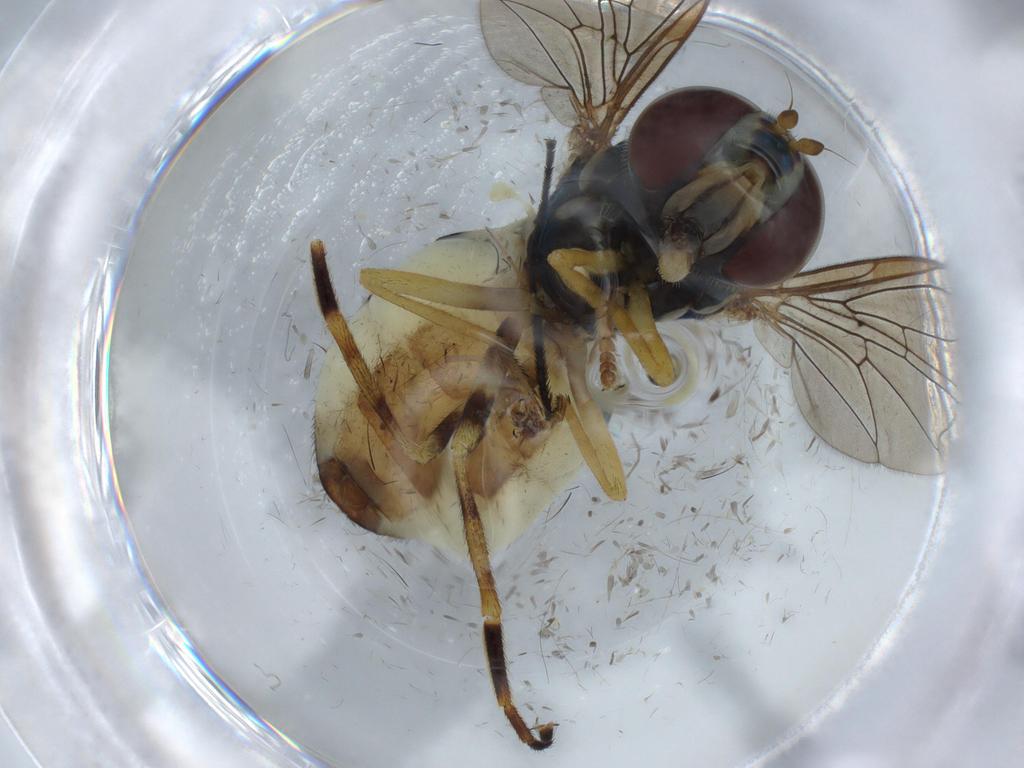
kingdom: Animalia
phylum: Arthropoda
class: Insecta
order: Diptera
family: Syrphidae
